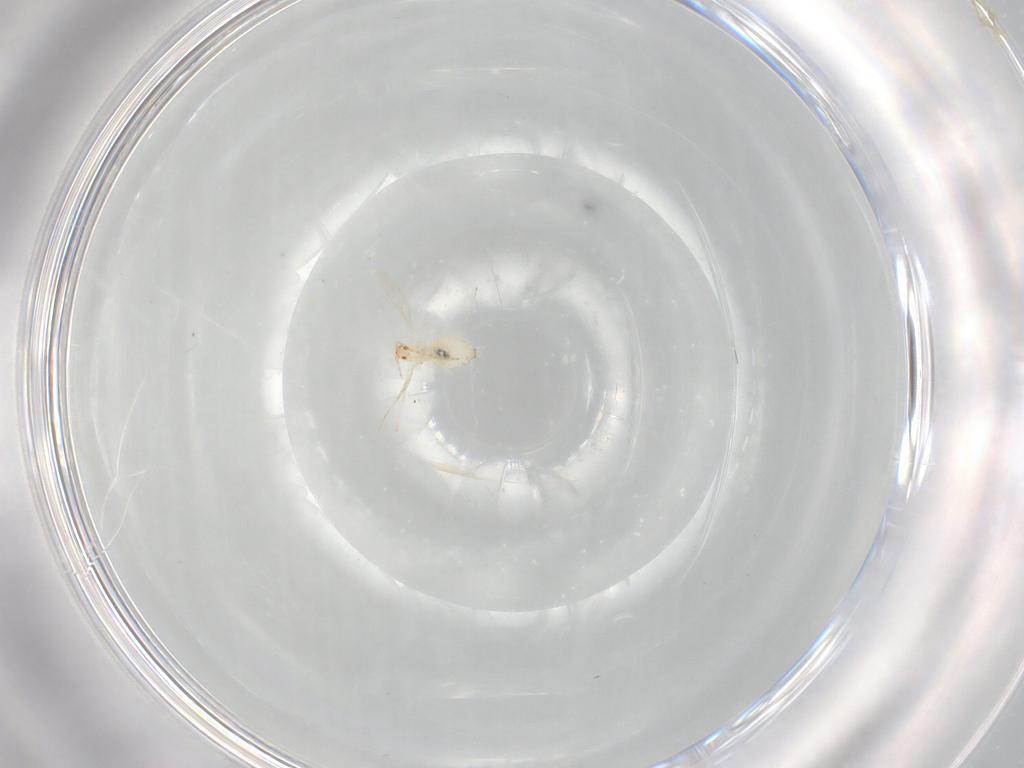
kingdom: Animalia
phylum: Arthropoda
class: Insecta
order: Diptera
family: Cecidomyiidae
